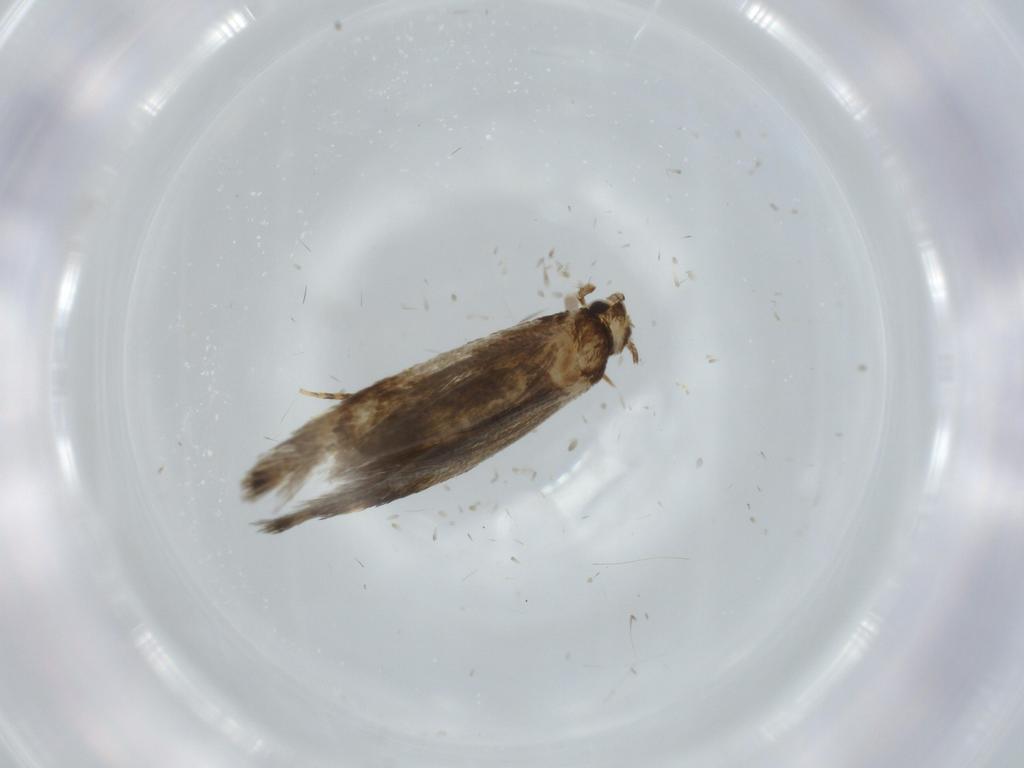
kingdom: Animalia
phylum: Arthropoda
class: Insecta
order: Lepidoptera
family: Tineidae
